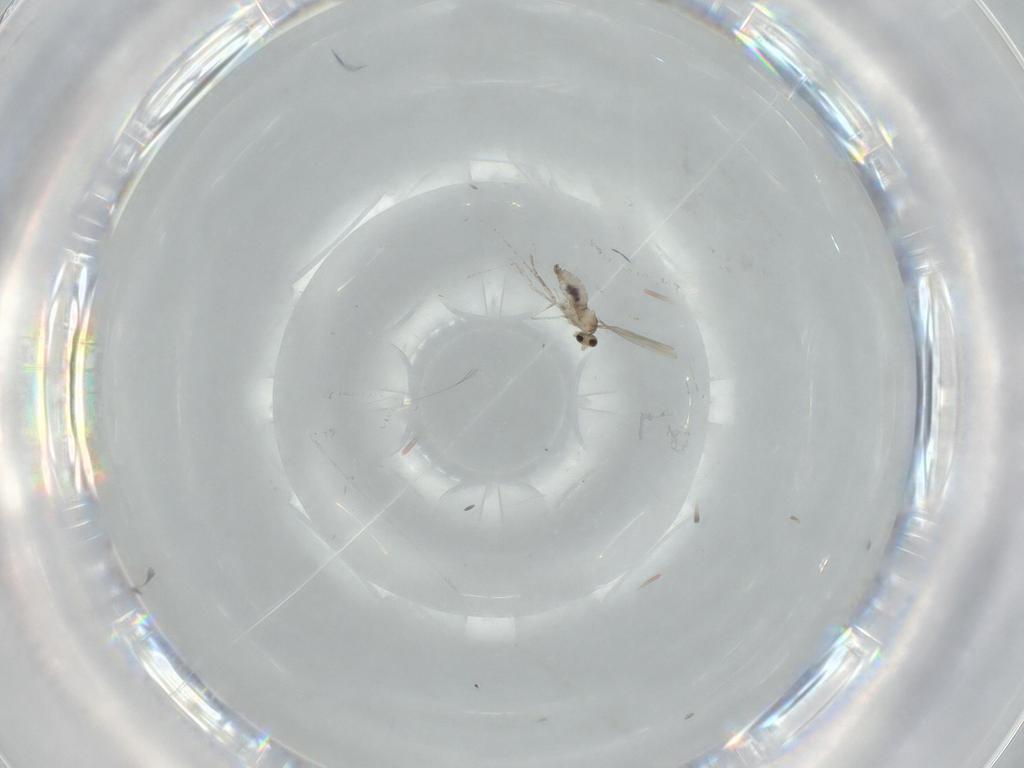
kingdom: Animalia
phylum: Arthropoda
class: Insecta
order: Diptera
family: Cecidomyiidae
